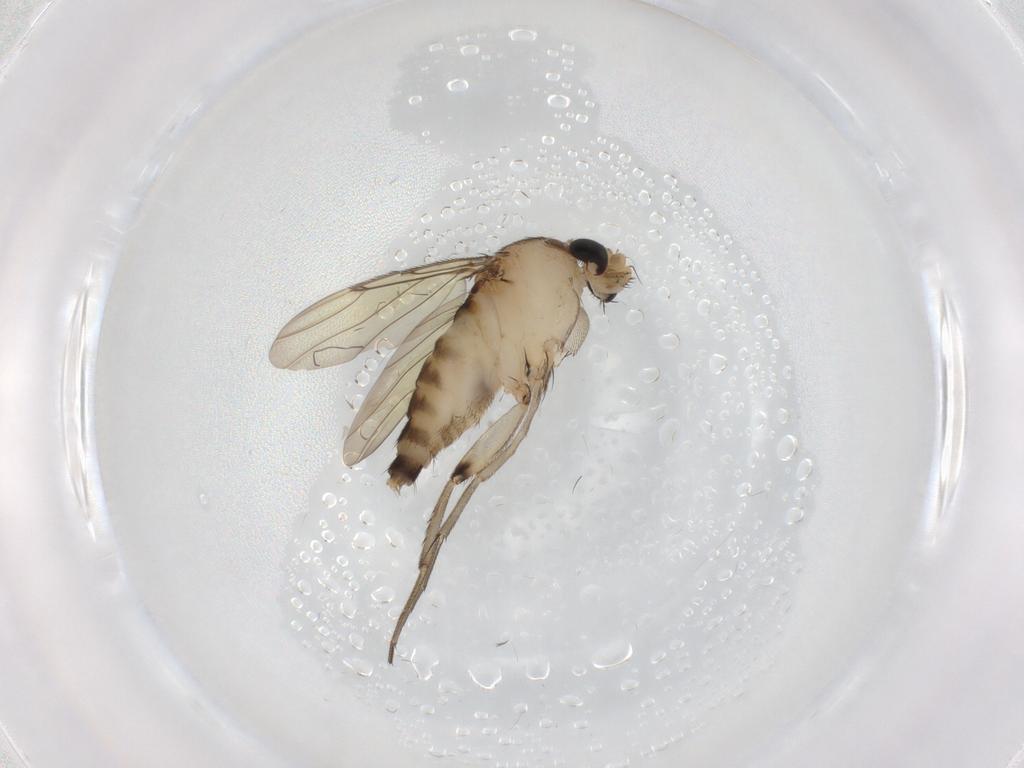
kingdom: Animalia
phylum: Arthropoda
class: Insecta
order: Diptera
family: Phoridae
